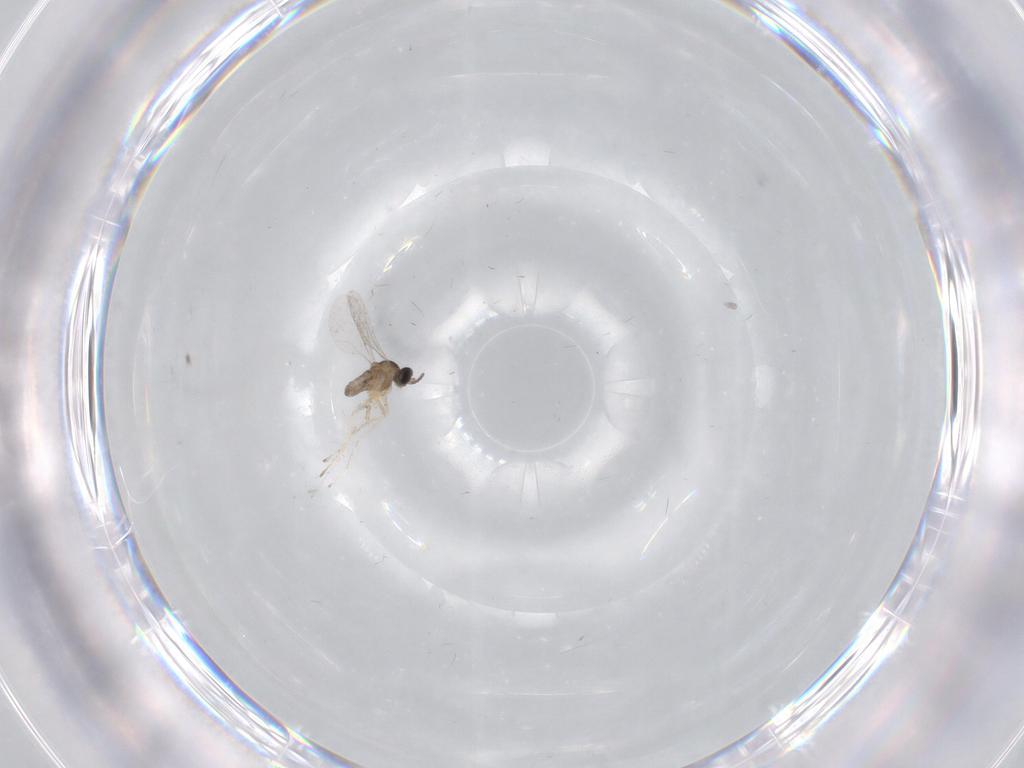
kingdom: Animalia
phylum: Arthropoda
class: Insecta
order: Diptera
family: Cecidomyiidae
